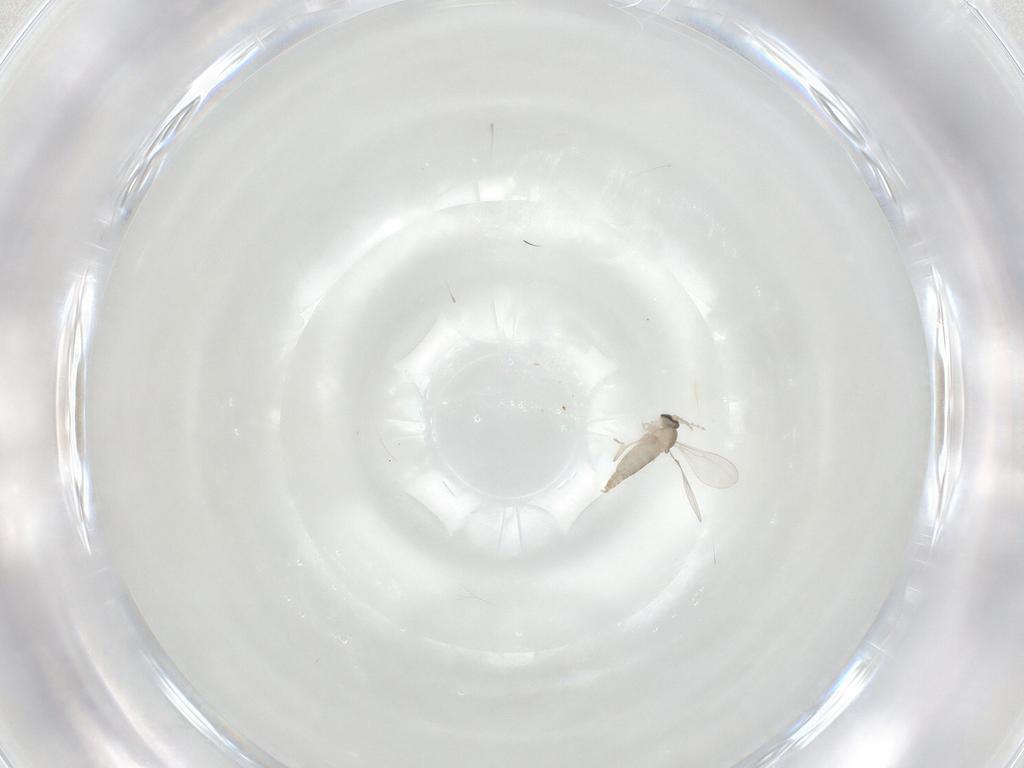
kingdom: Animalia
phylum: Arthropoda
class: Insecta
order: Diptera
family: Cecidomyiidae
